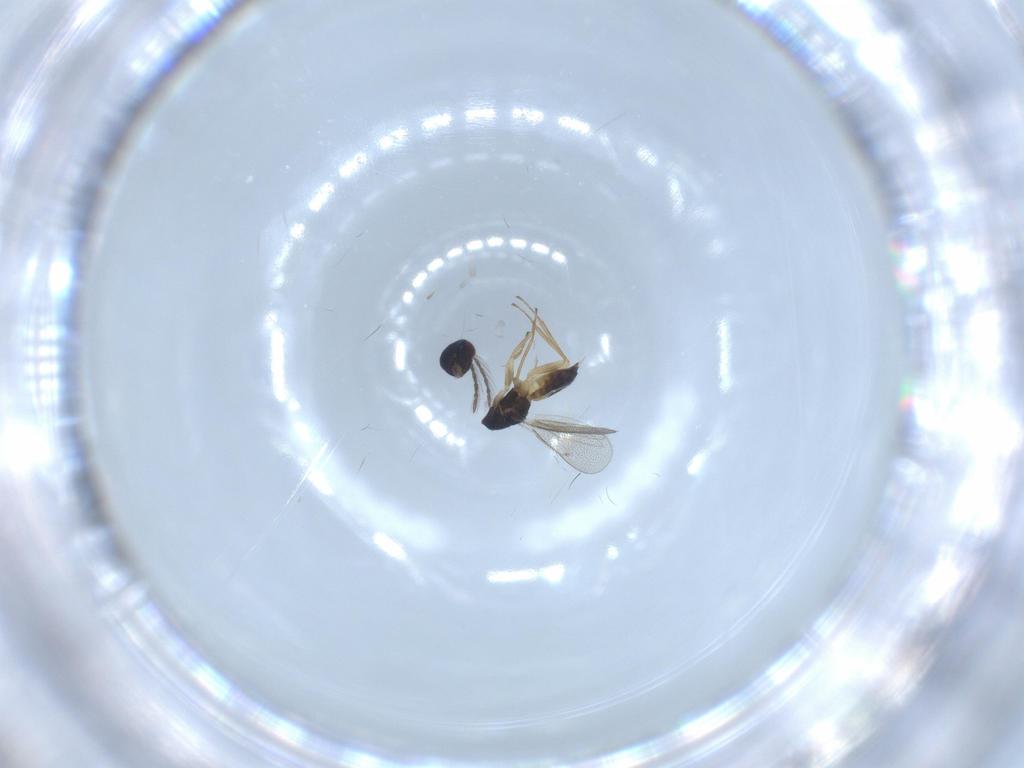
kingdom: Animalia
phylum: Arthropoda
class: Insecta
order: Hymenoptera
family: Eulophidae
